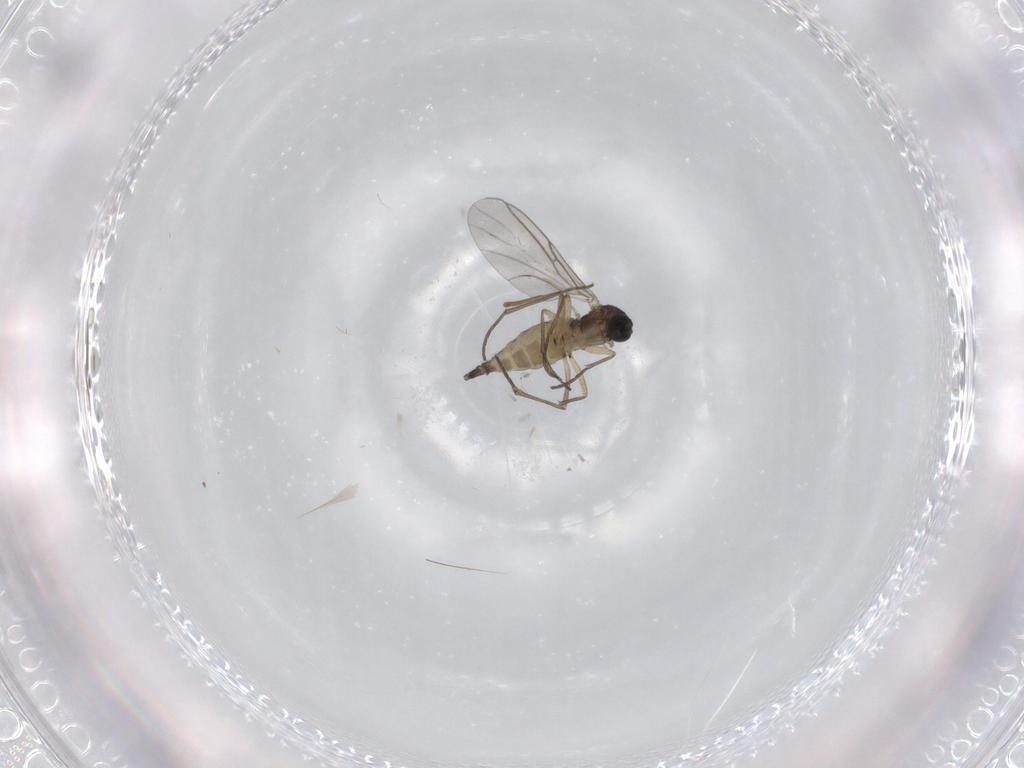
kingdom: Animalia
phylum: Arthropoda
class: Insecta
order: Diptera
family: Sciaridae
